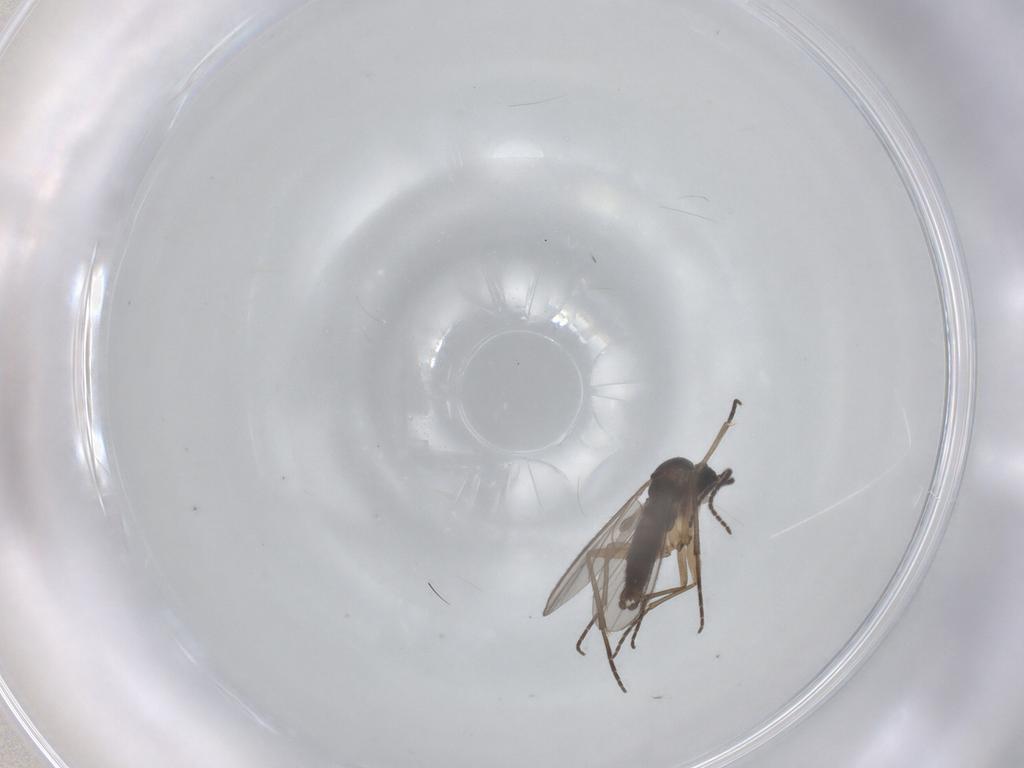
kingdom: Animalia
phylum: Arthropoda
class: Insecta
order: Diptera
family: Sciaridae
